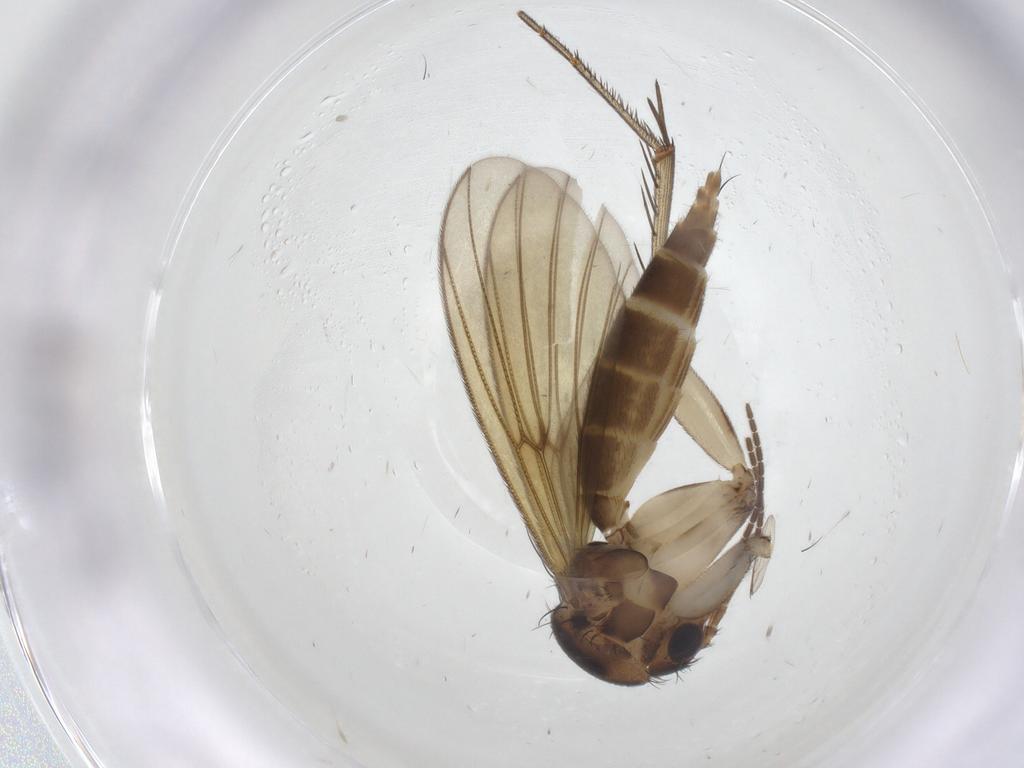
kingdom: Animalia
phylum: Arthropoda
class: Insecta
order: Diptera
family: Mycetophilidae
